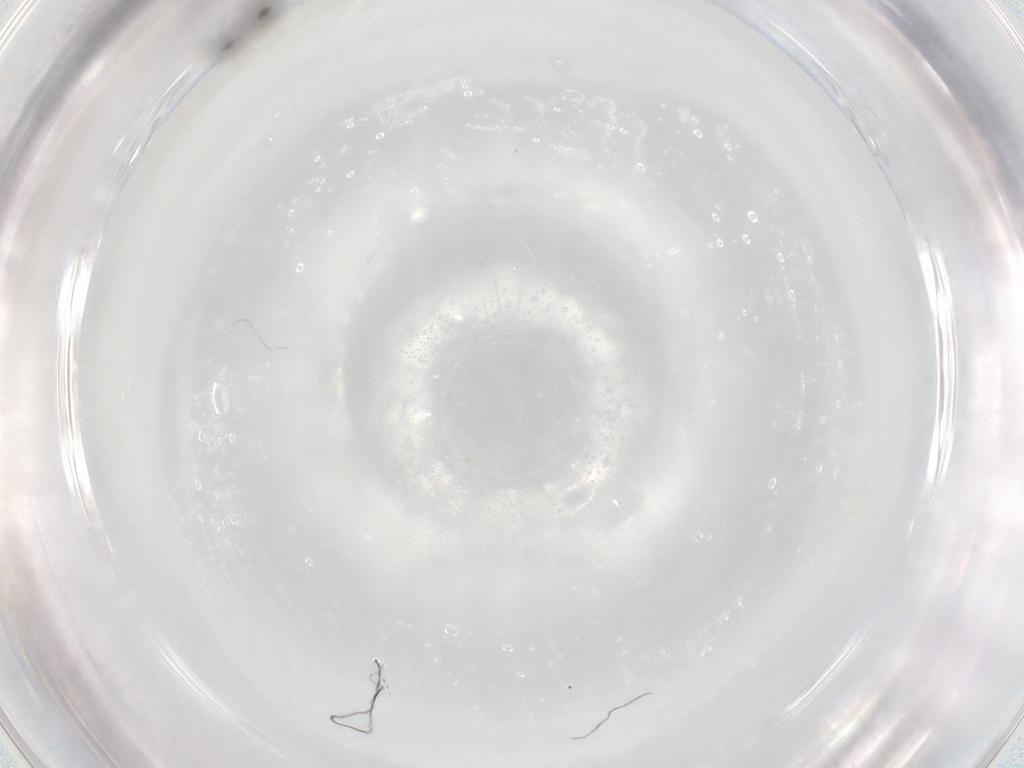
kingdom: Animalia
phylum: Arthropoda
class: Insecta
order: Diptera
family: Phoridae
